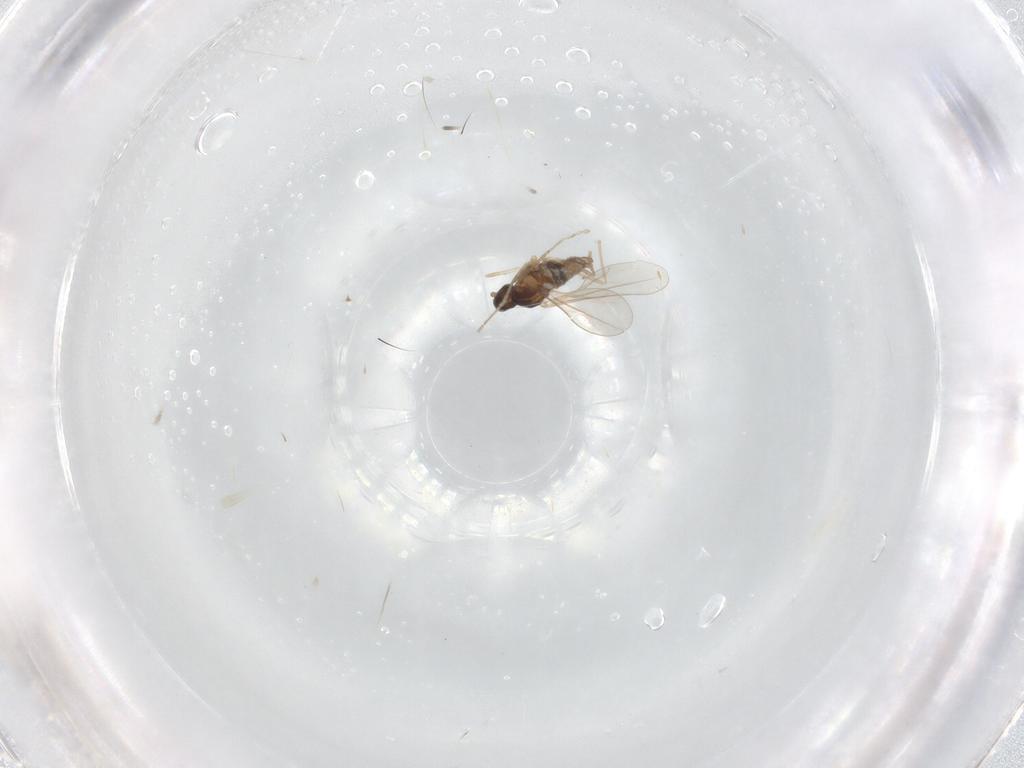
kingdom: Animalia
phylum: Arthropoda
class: Insecta
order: Diptera
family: Cecidomyiidae
